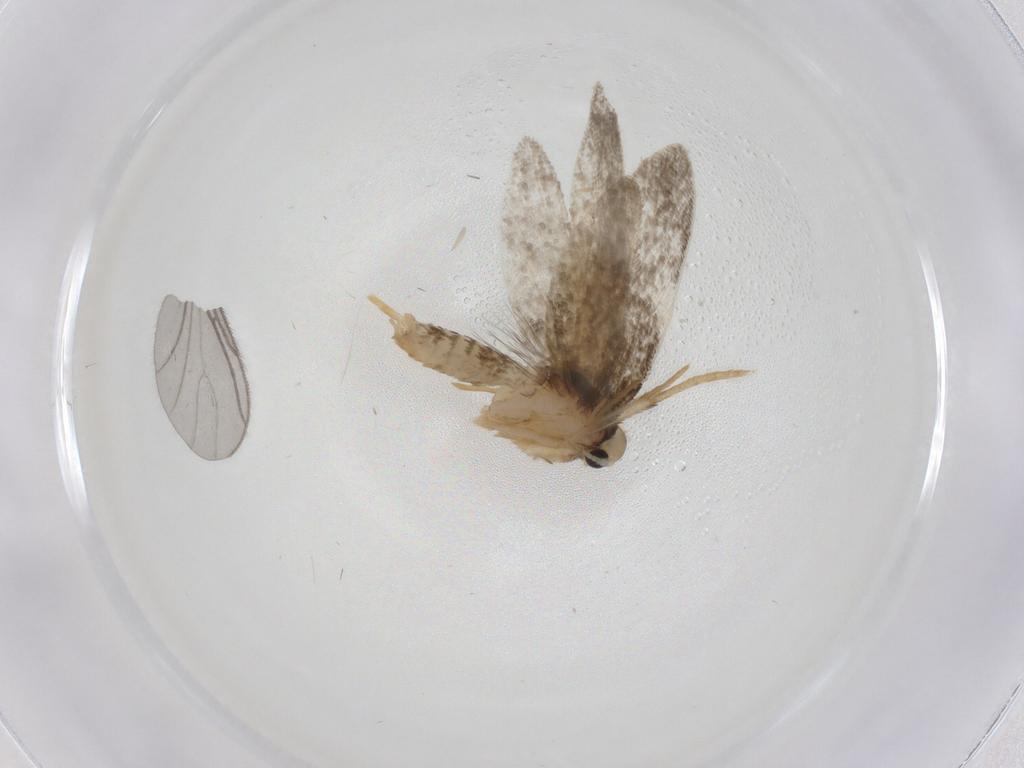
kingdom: Animalia
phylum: Arthropoda
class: Insecta
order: Lepidoptera
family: Psychidae
